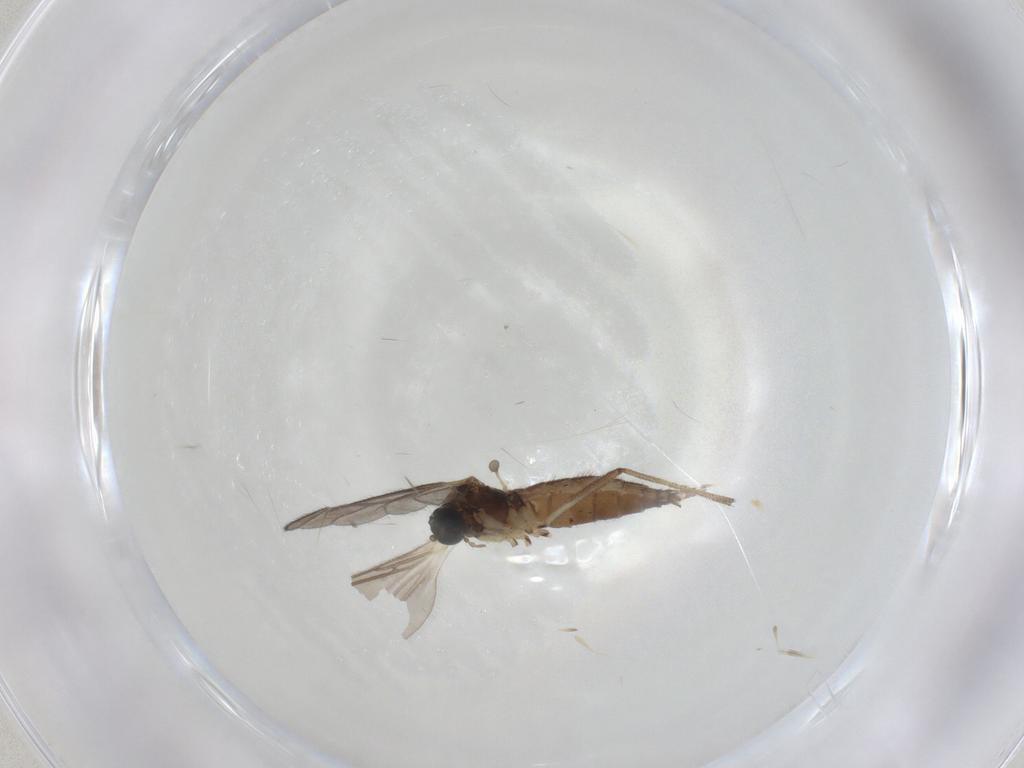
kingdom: Animalia
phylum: Arthropoda
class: Insecta
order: Diptera
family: Sciaridae
